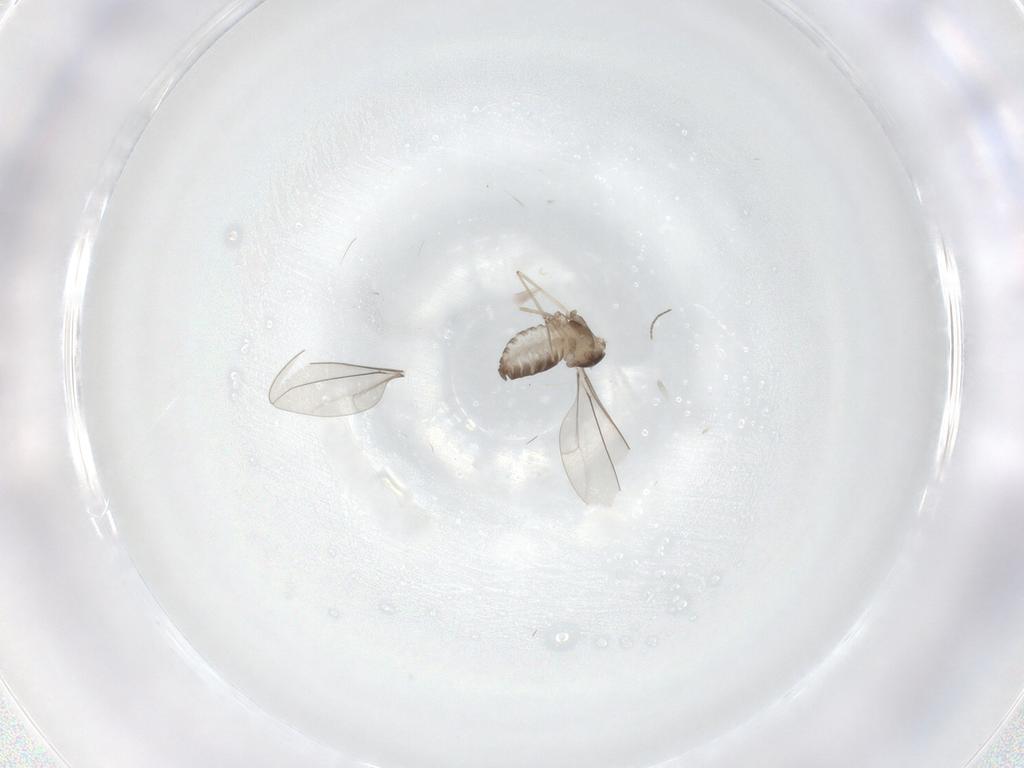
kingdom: Animalia
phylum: Arthropoda
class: Insecta
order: Diptera
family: Cecidomyiidae
